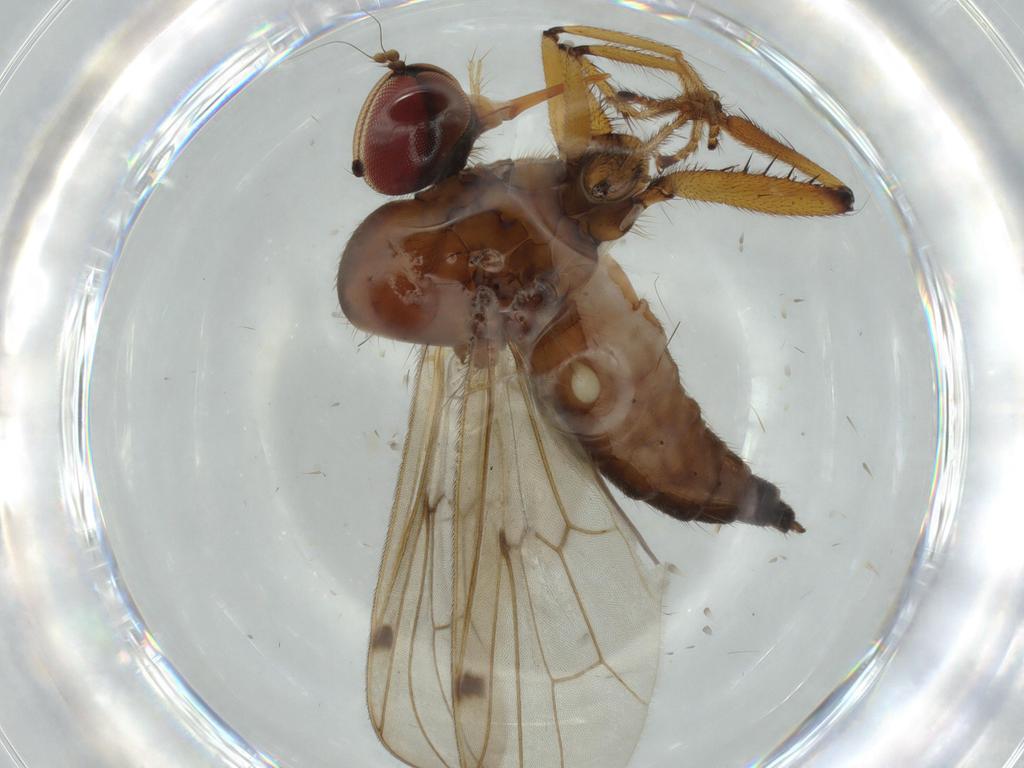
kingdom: Animalia
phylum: Arthropoda
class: Insecta
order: Diptera
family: Hybotidae
